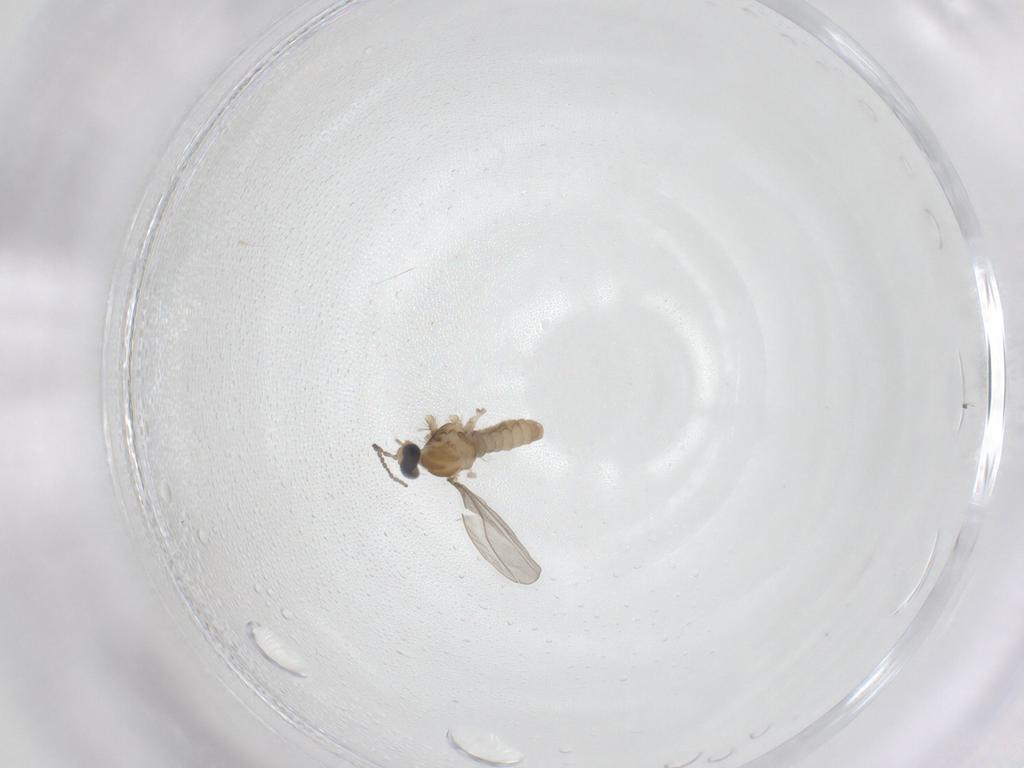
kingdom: Animalia
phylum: Arthropoda
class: Insecta
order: Diptera
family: Cecidomyiidae
